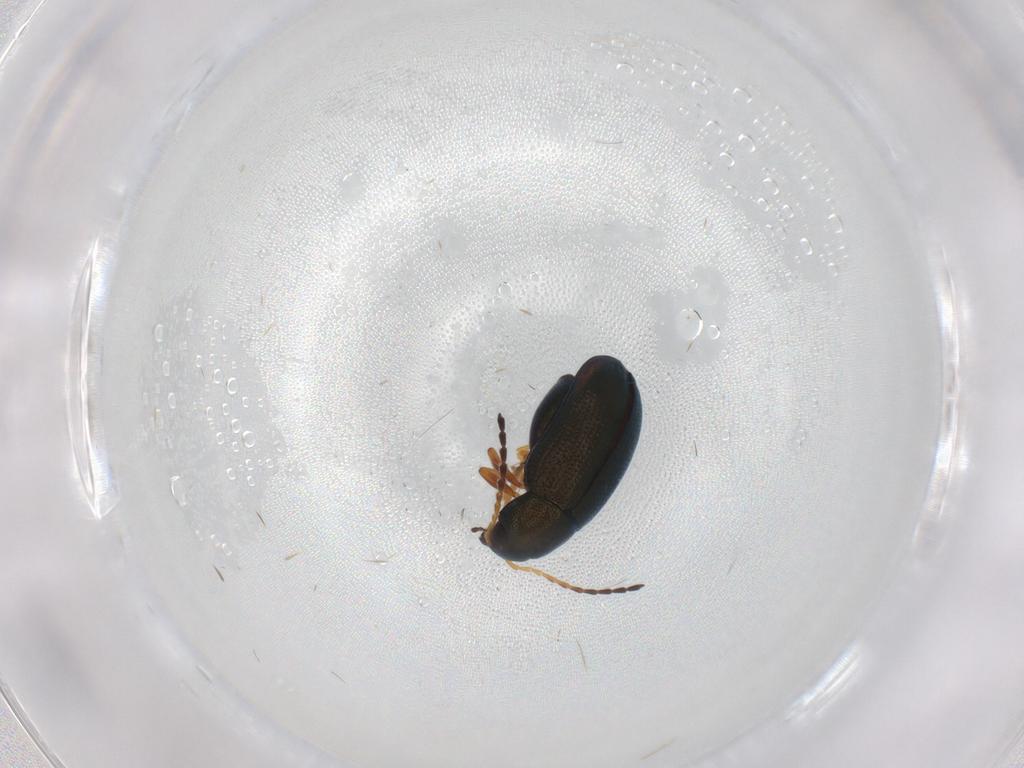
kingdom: Animalia
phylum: Arthropoda
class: Insecta
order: Coleoptera
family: Chrysomelidae
